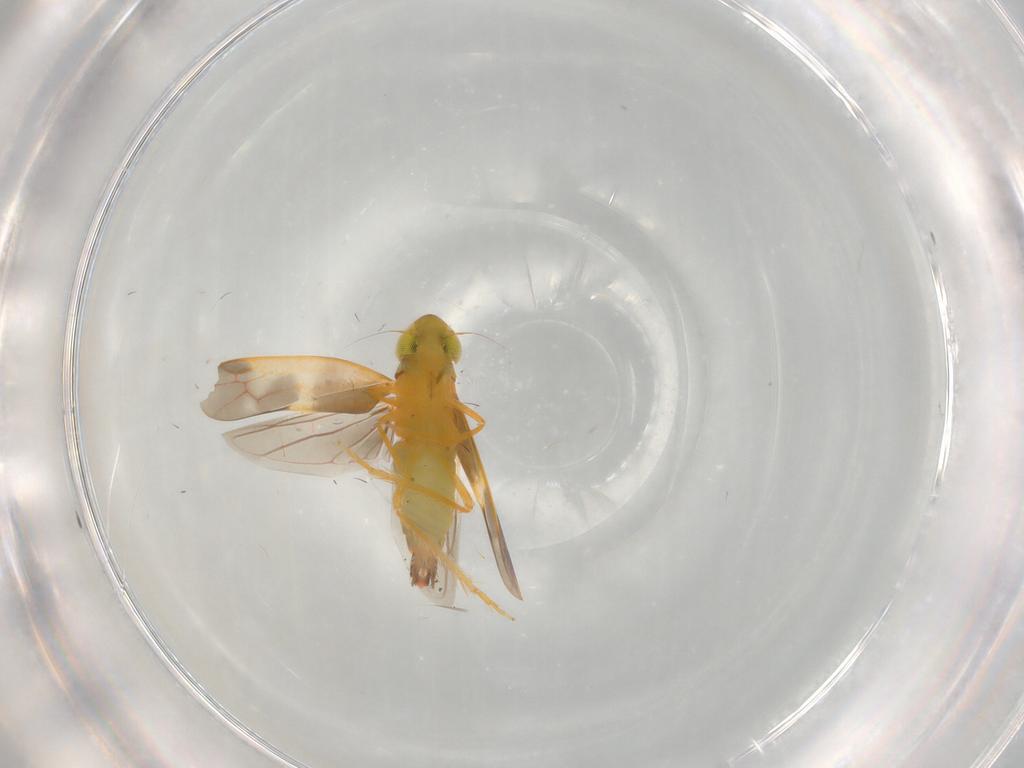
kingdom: Animalia
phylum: Arthropoda
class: Insecta
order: Hemiptera
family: Cicadellidae
